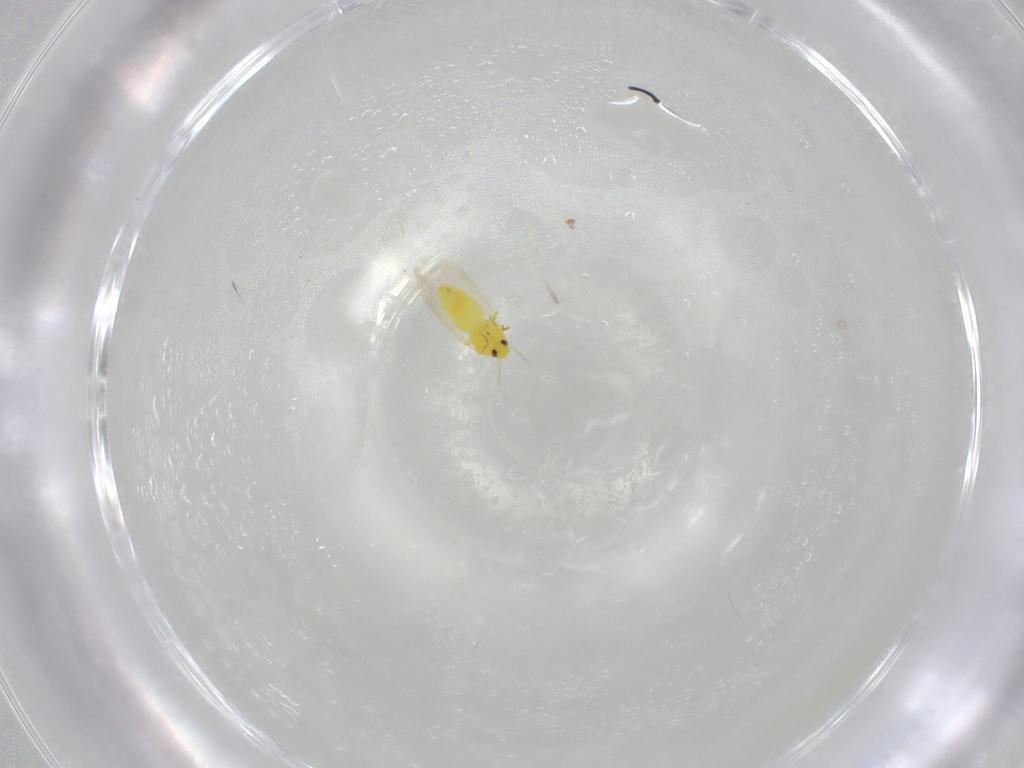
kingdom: Animalia
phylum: Arthropoda
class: Insecta
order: Hemiptera
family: Aleyrodidae
